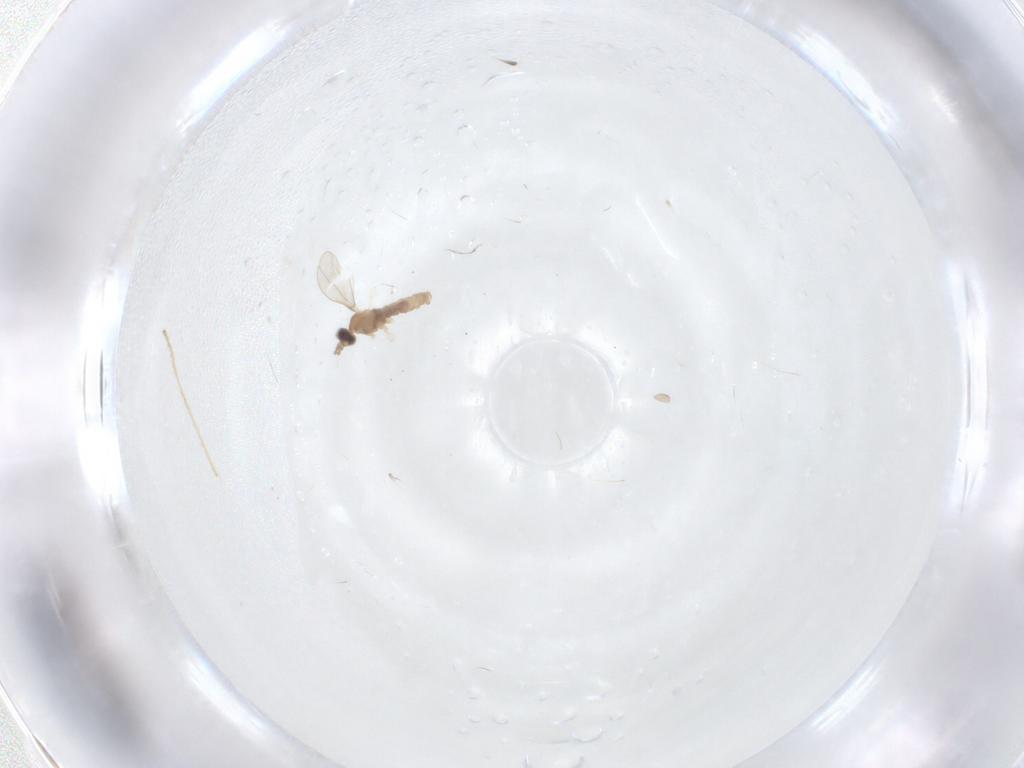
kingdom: Animalia
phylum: Arthropoda
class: Insecta
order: Diptera
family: Cecidomyiidae
